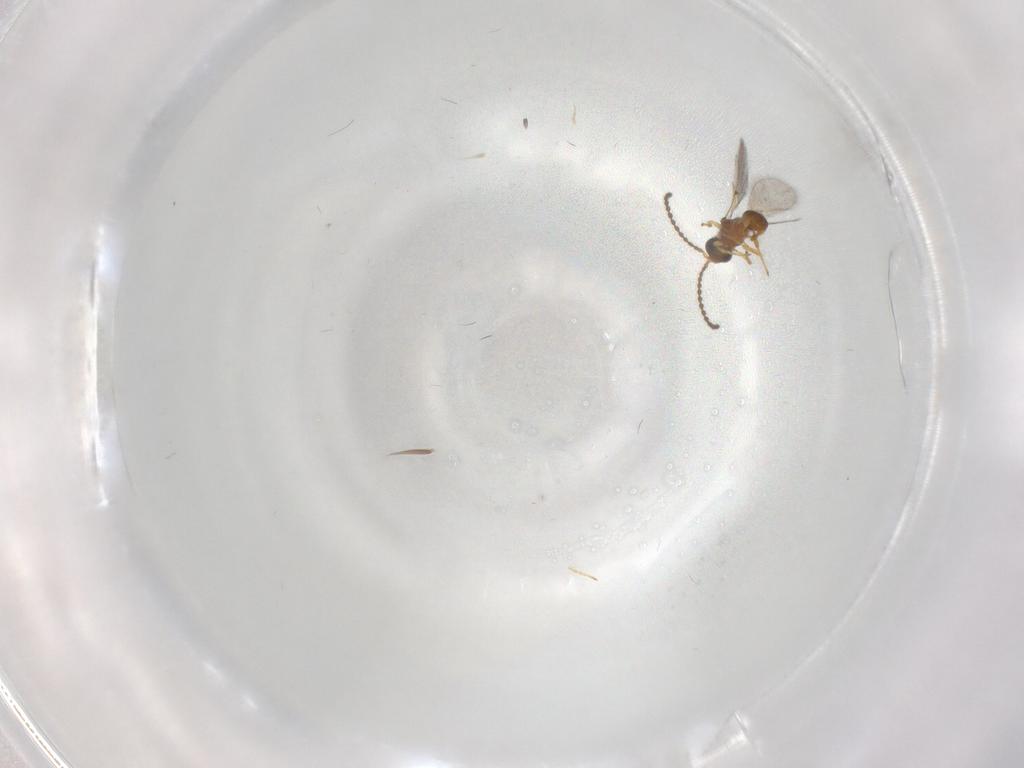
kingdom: Animalia
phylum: Arthropoda
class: Insecta
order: Hymenoptera
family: Diapriidae
